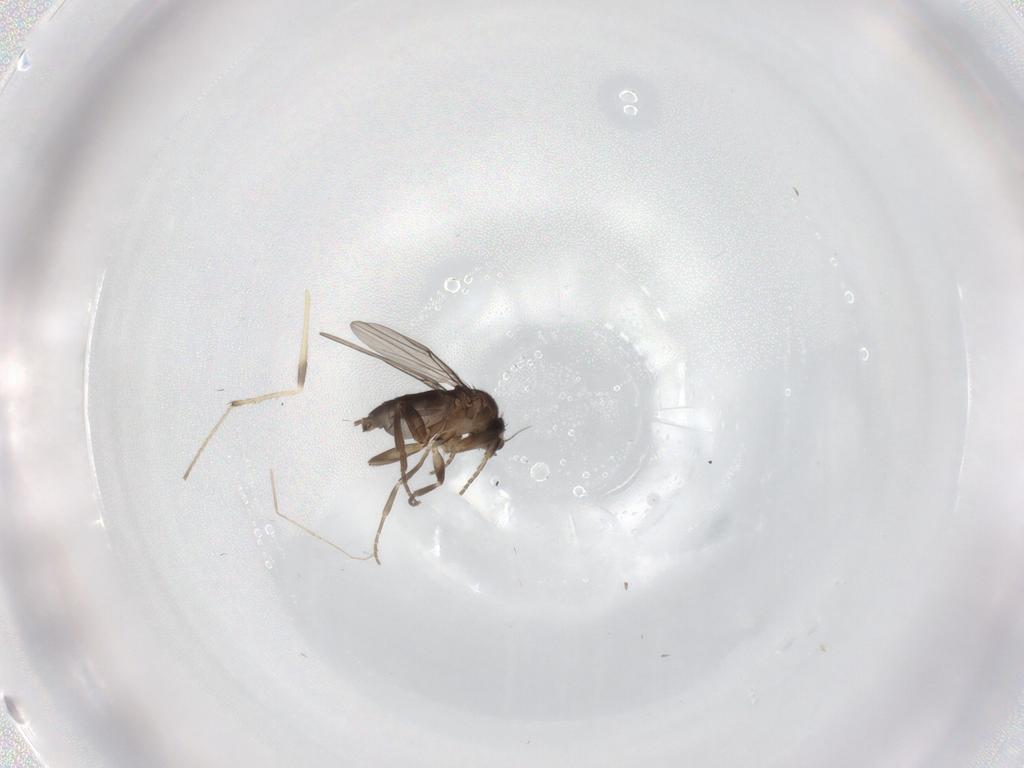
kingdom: Animalia
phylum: Arthropoda
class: Insecta
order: Diptera
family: Phoridae
